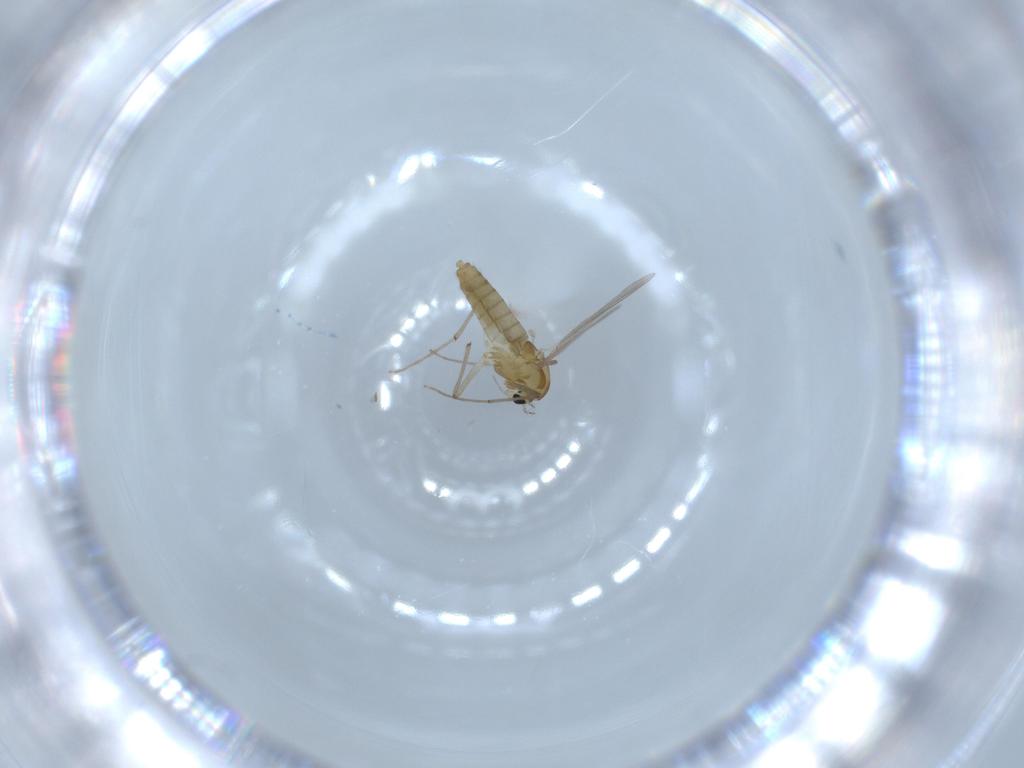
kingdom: Animalia
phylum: Arthropoda
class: Insecta
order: Diptera
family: Chironomidae
